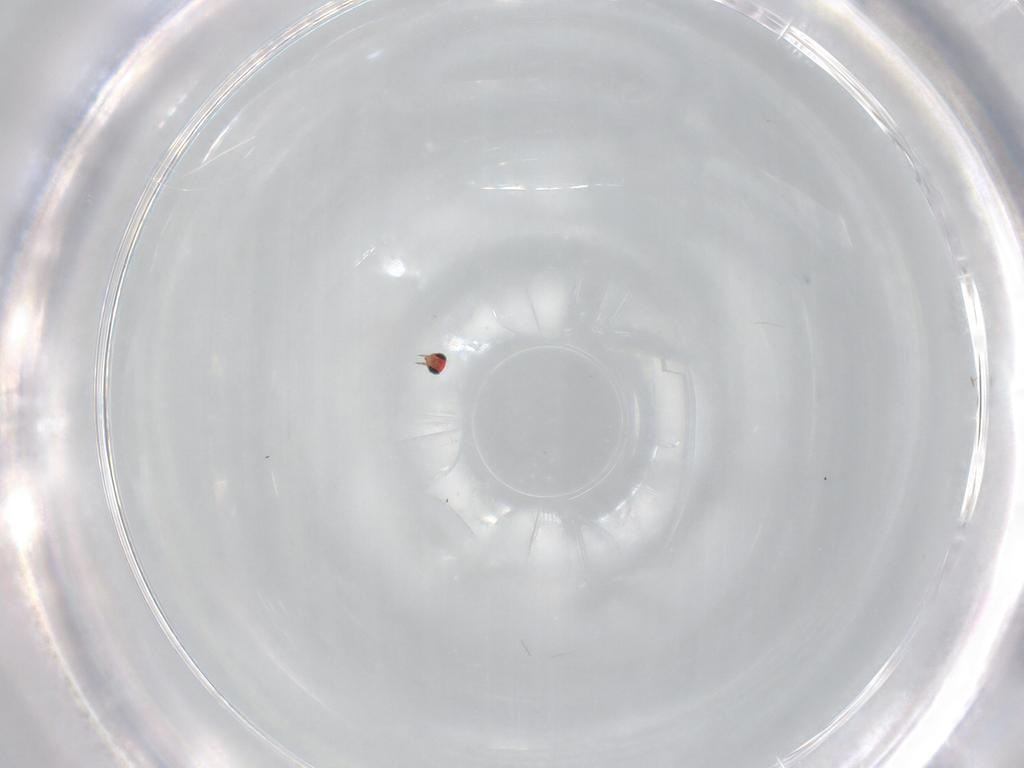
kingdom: Animalia
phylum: Arthropoda
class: Insecta
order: Hymenoptera
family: Trichogrammatidae
